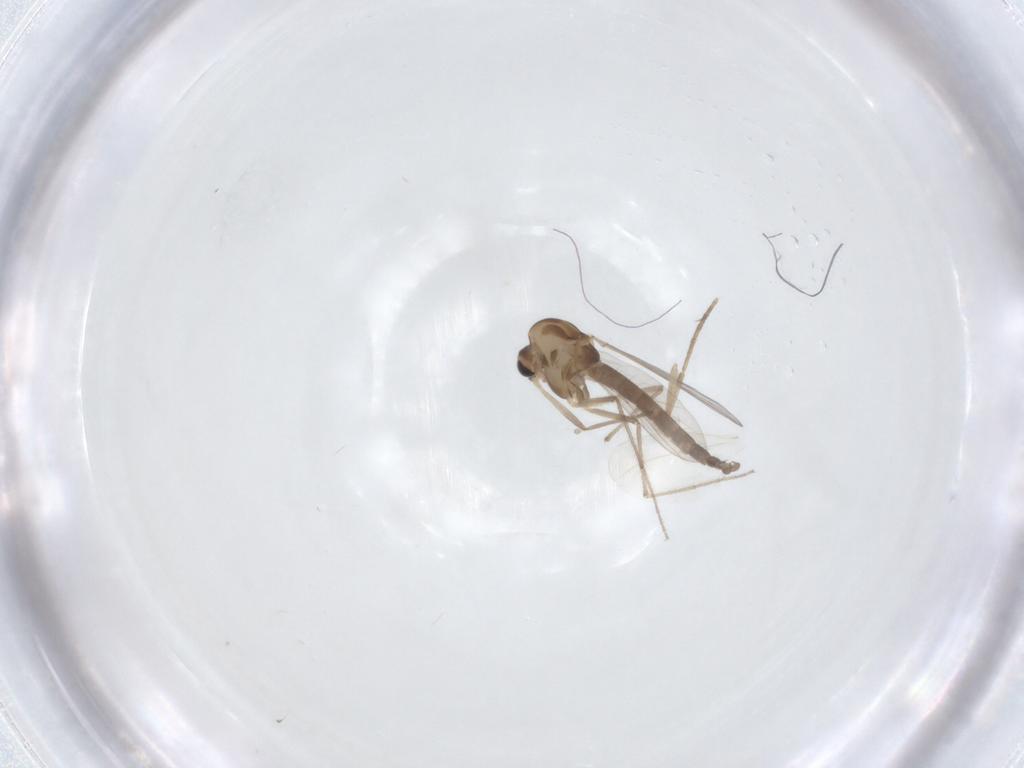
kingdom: Animalia
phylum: Arthropoda
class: Insecta
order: Diptera
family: Chironomidae
